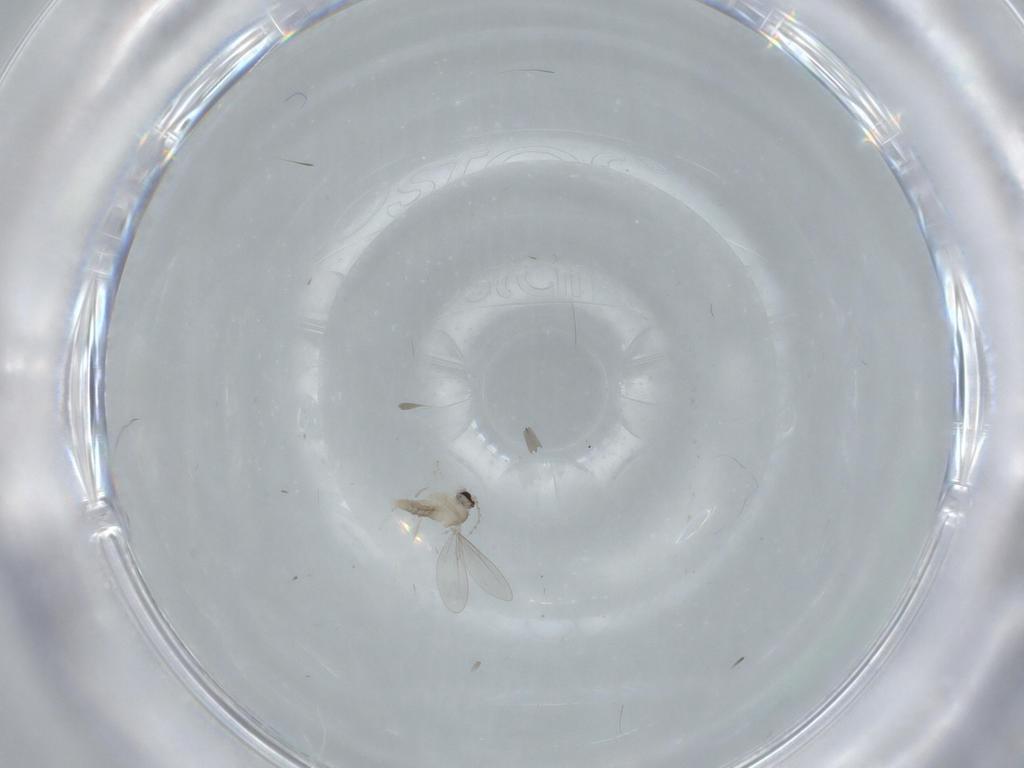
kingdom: Animalia
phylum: Arthropoda
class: Insecta
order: Diptera
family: Cecidomyiidae
